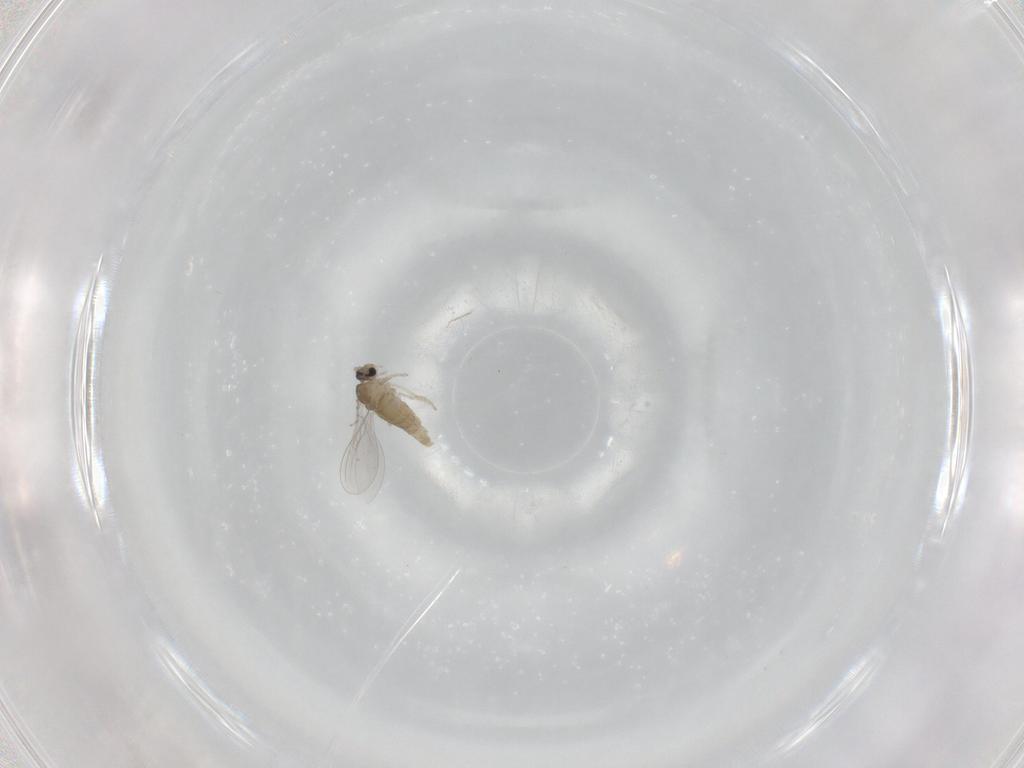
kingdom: Animalia
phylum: Arthropoda
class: Insecta
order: Diptera
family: Psychodidae
